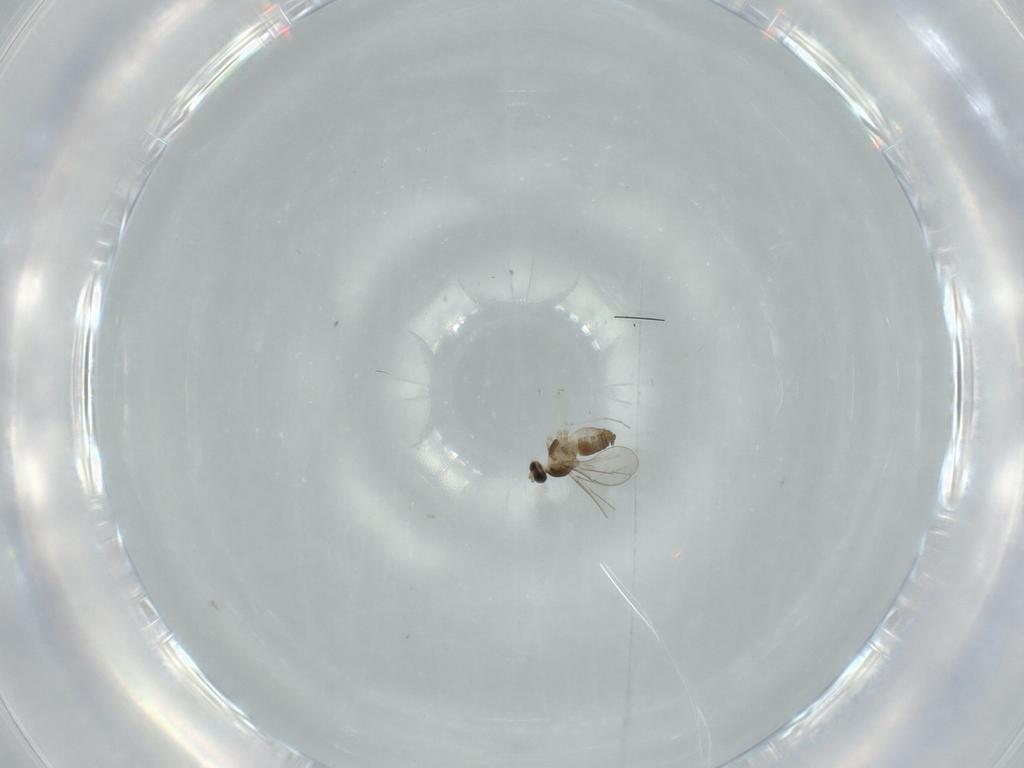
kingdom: Animalia
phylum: Arthropoda
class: Insecta
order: Diptera
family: Cecidomyiidae
